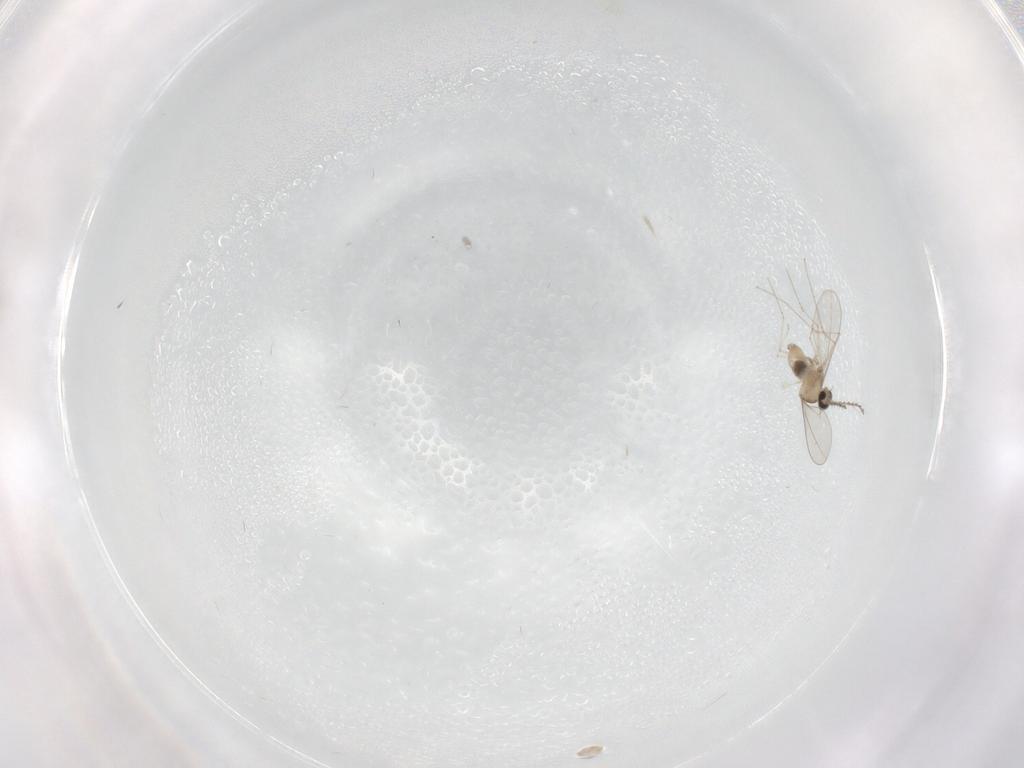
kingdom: Animalia
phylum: Arthropoda
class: Insecta
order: Diptera
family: Phoridae
